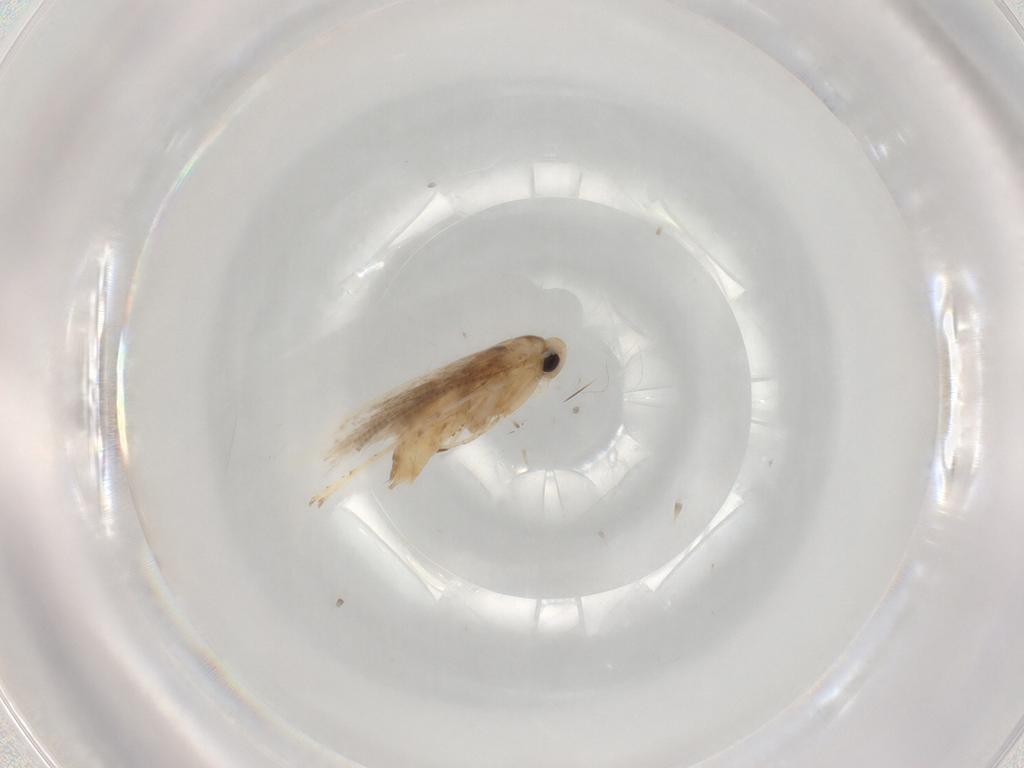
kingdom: Animalia
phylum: Arthropoda
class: Insecta
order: Lepidoptera
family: Gracillariidae
